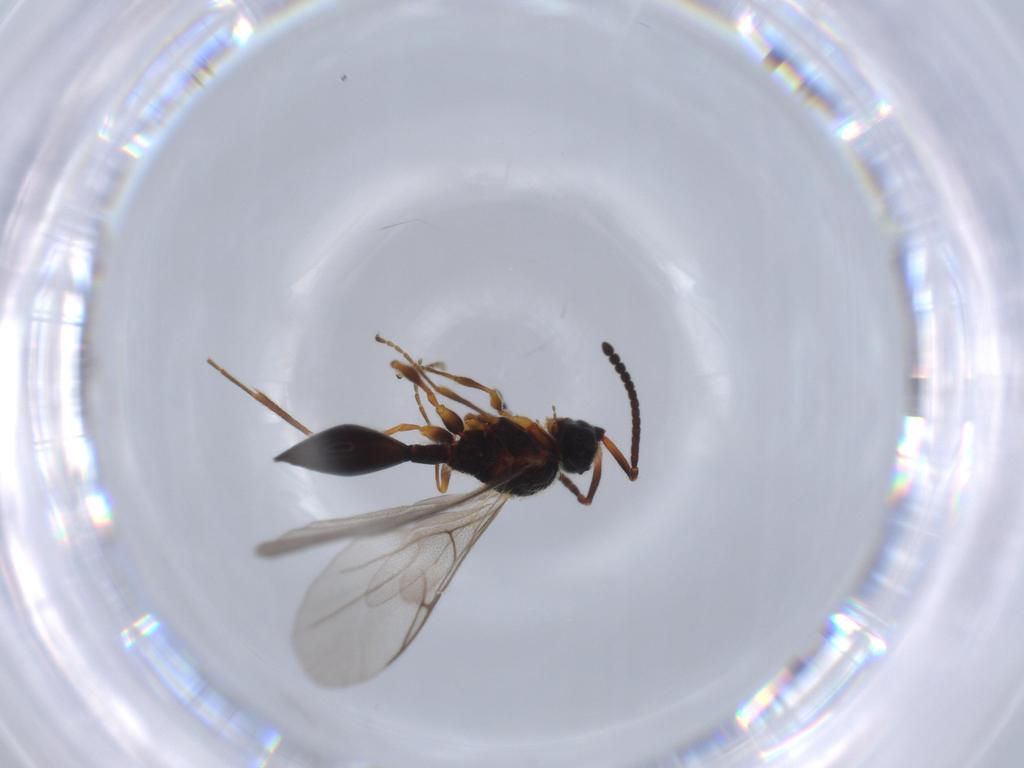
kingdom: Animalia
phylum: Arthropoda
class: Insecta
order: Hymenoptera
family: Diapriidae
